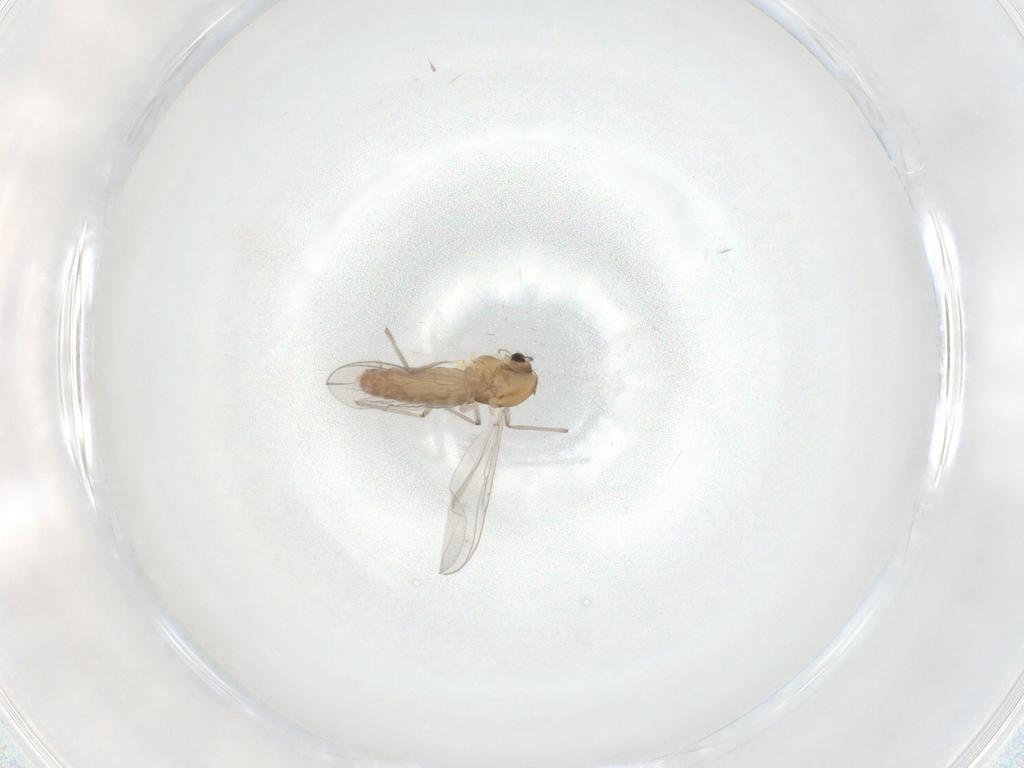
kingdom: Animalia
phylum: Arthropoda
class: Insecta
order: Diptera
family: Chironomidae
